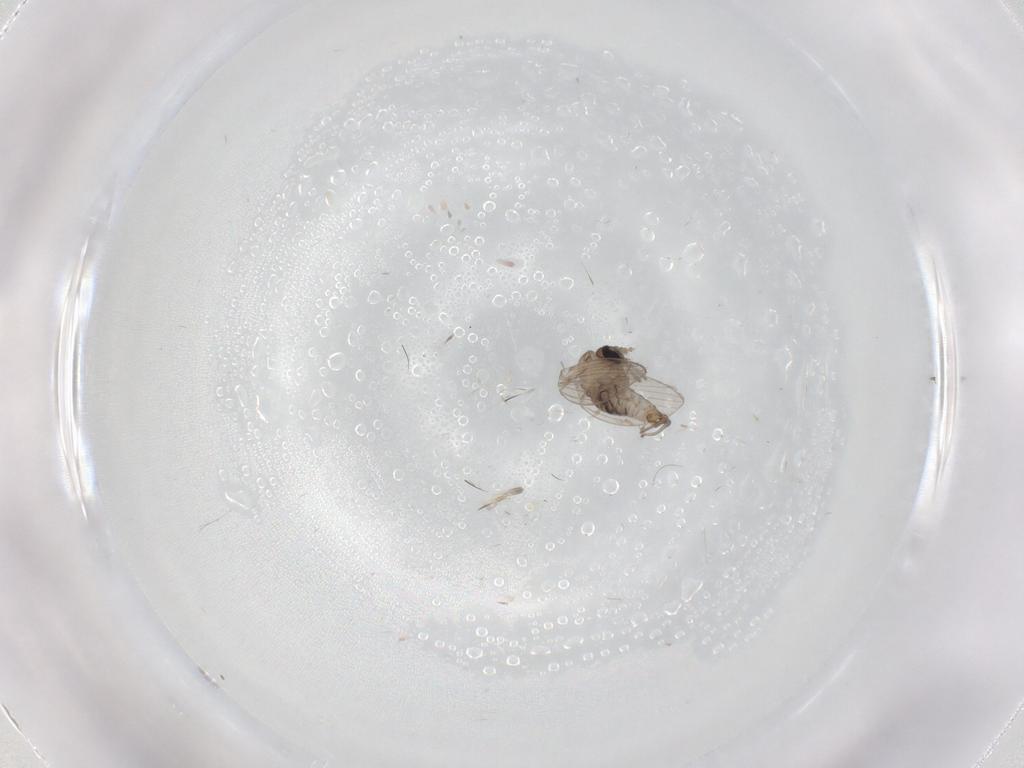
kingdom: Animalia
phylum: Arthropoda
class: Insecta
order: Diptera
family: Psychodidae
